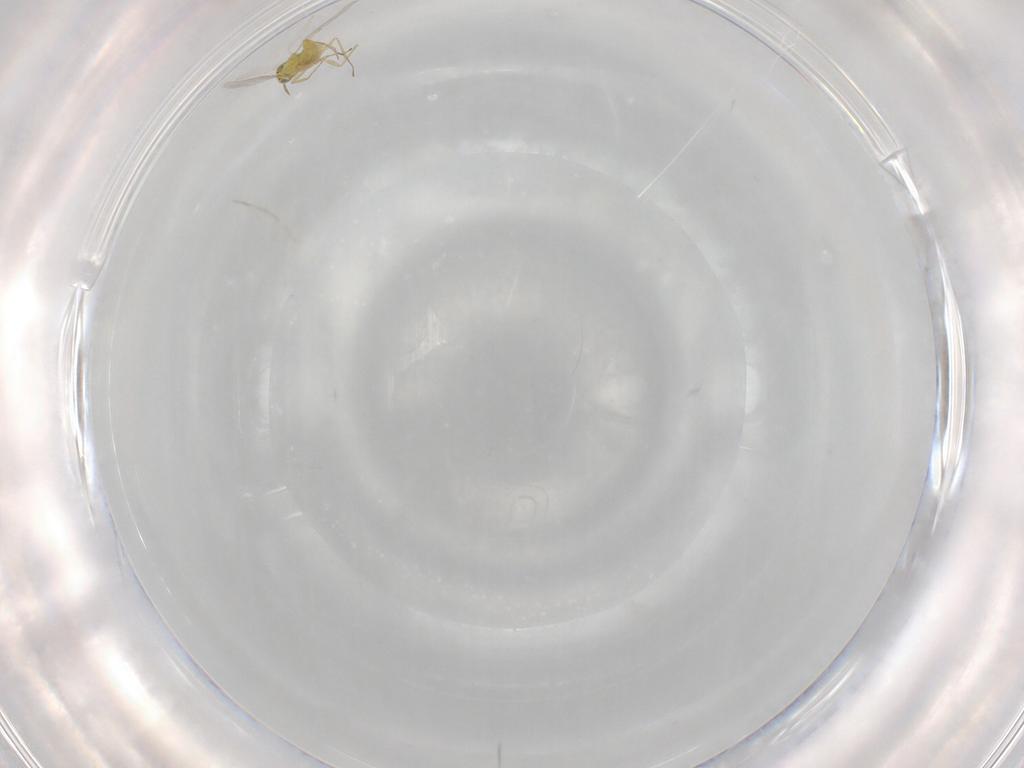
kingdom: Animalia
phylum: Arthropoda
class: Insecta
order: Hymenoptera
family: Aphelinidae
